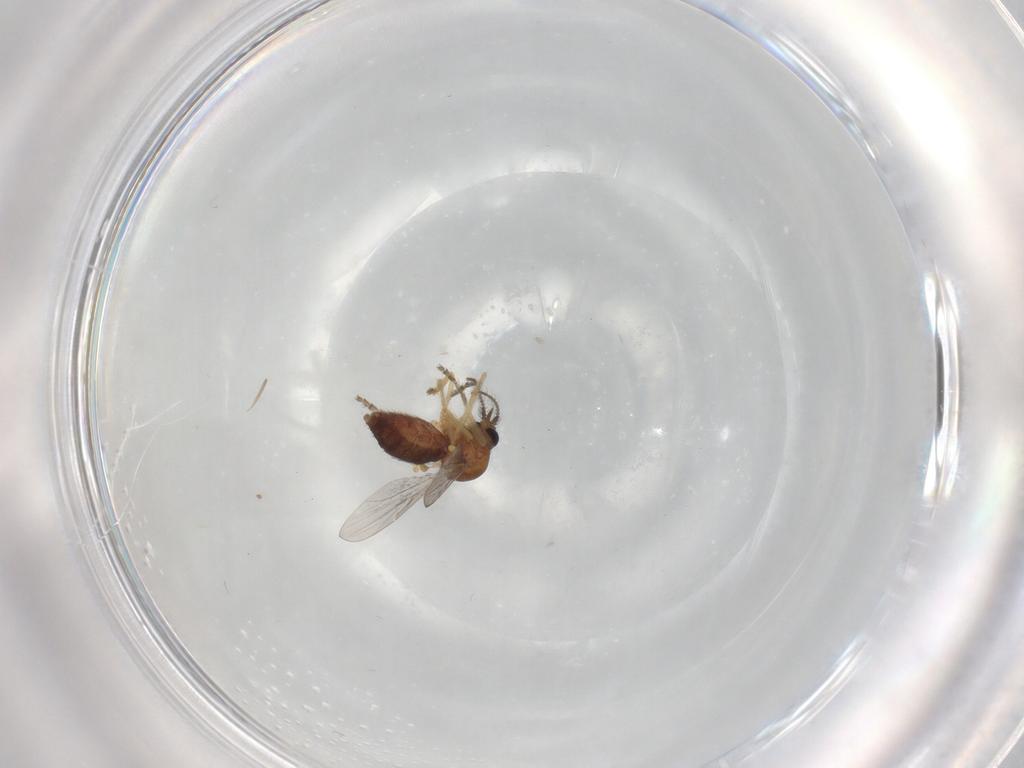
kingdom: Animalia
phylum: Arthropoda
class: Insecta
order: Diptera
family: Ceratopogonidae
